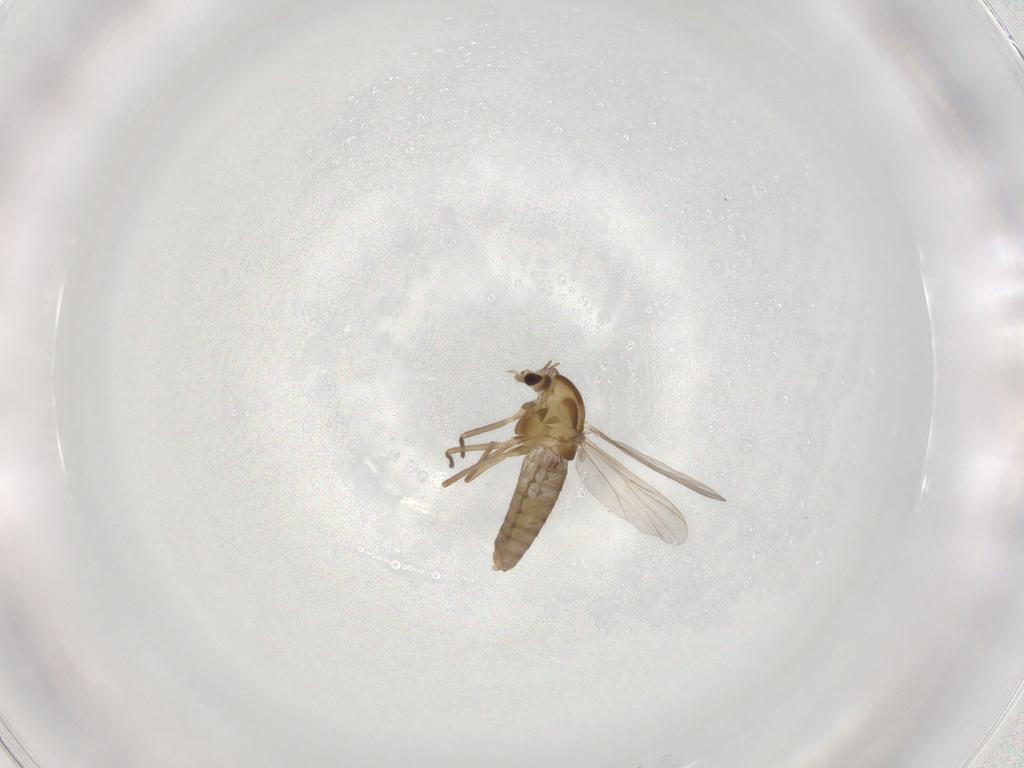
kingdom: Animalia
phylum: Arthropoda
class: Insecta
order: Diptera
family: Chironomidae
